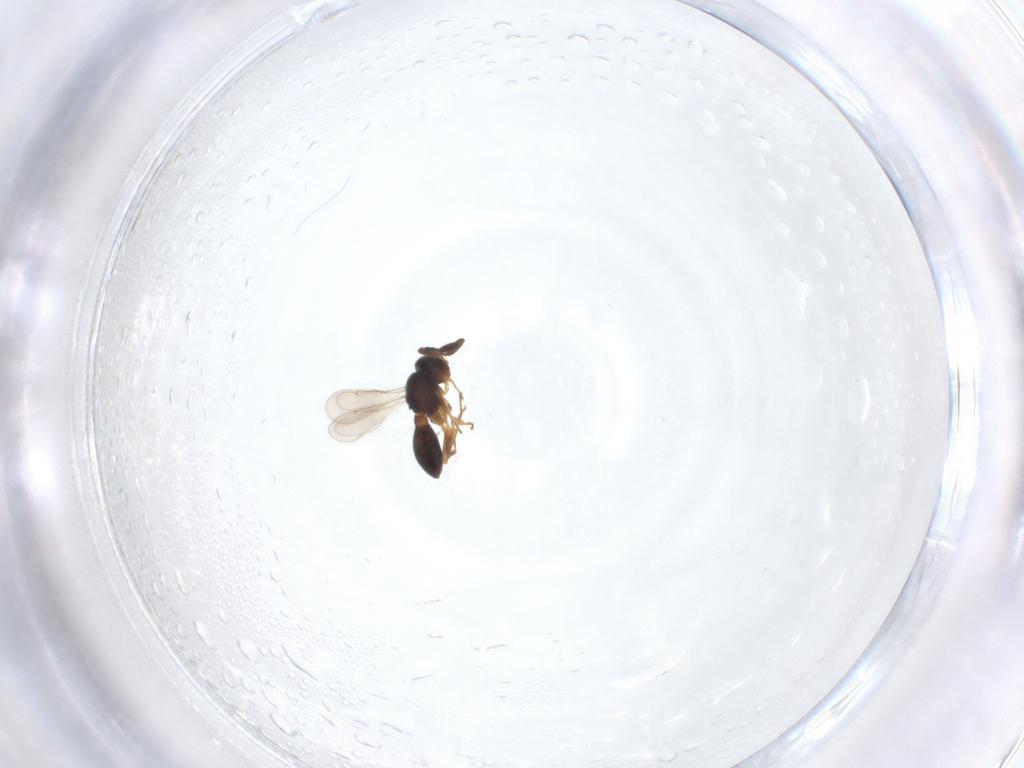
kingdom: Animalia
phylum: Arthropoda
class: Insecta
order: Hymenoptera
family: Scelionidae
